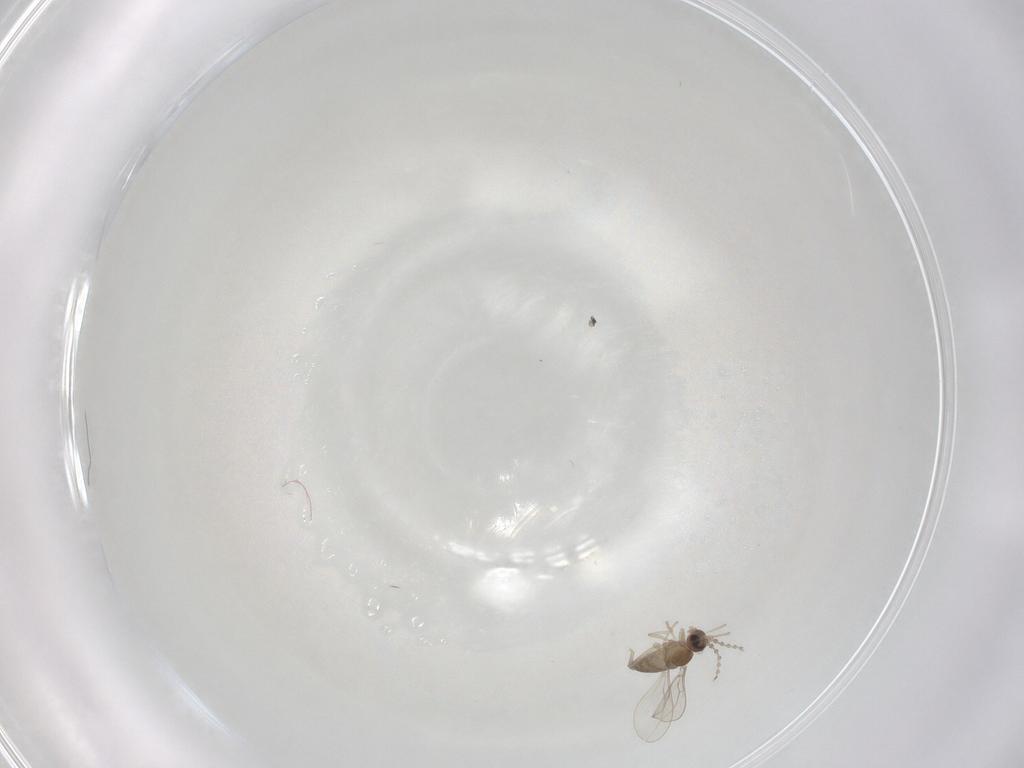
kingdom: Animalia
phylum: Arthropoda
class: Insecta
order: Diptera
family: Cecidomyiidae
